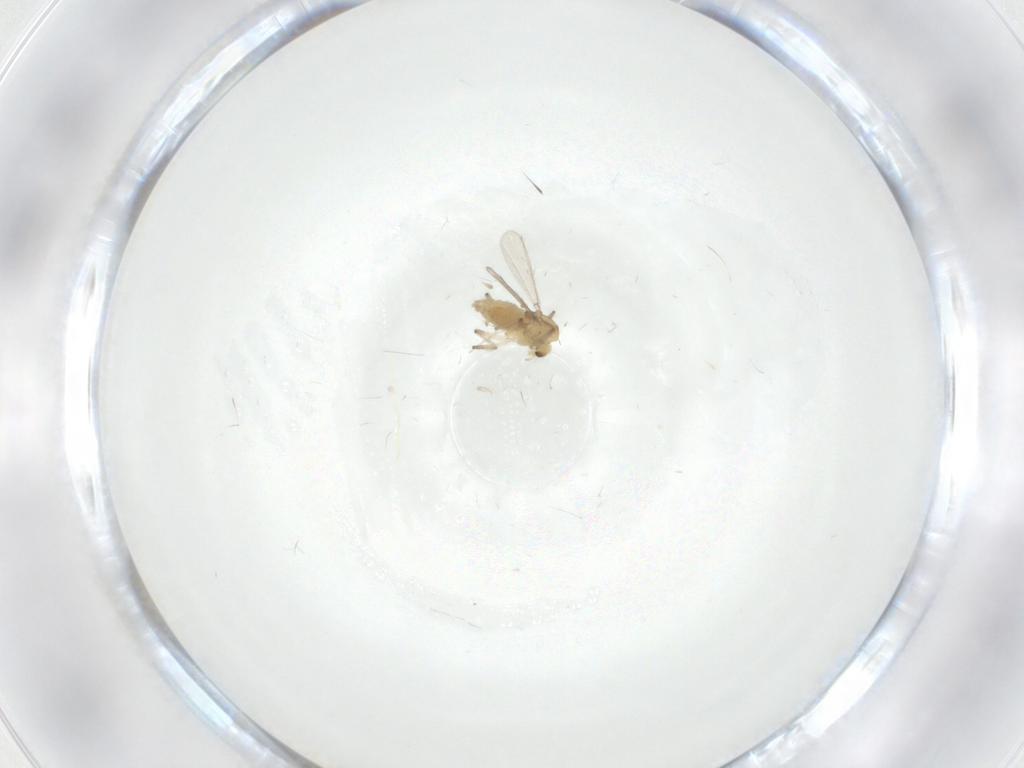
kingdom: Animalia
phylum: Arthropoda
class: Insecta
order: Diptera
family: Chironomidae
